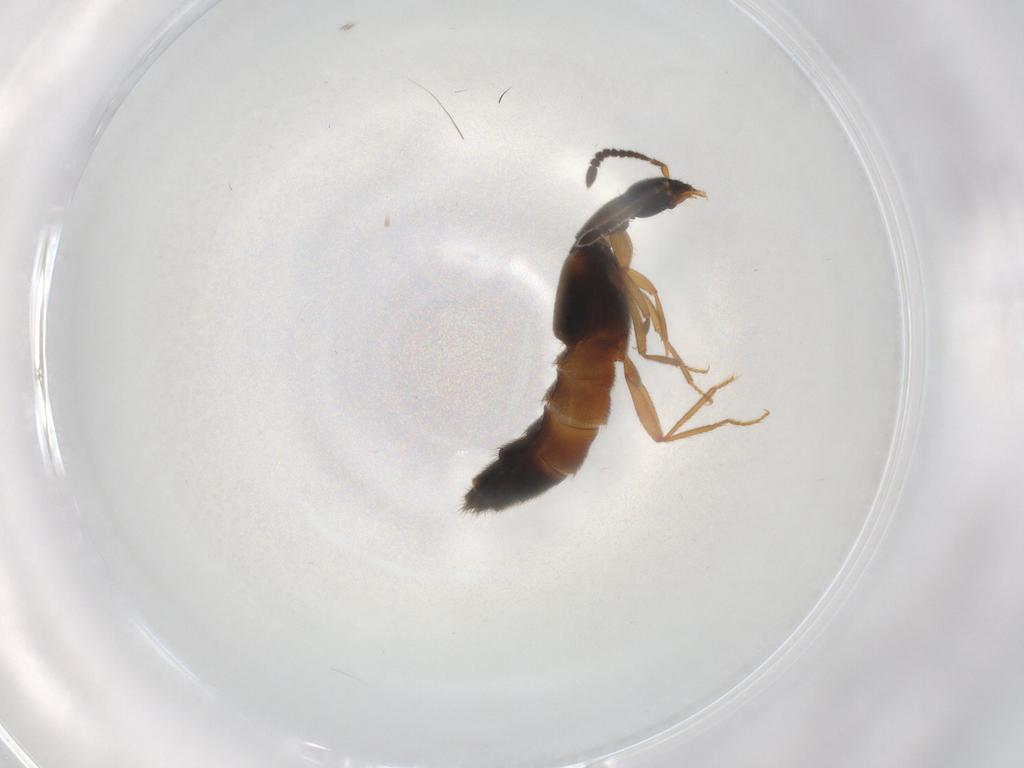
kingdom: Animalia
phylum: Arthropoda
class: Insecta
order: Coleoptera
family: Staphylinidae
